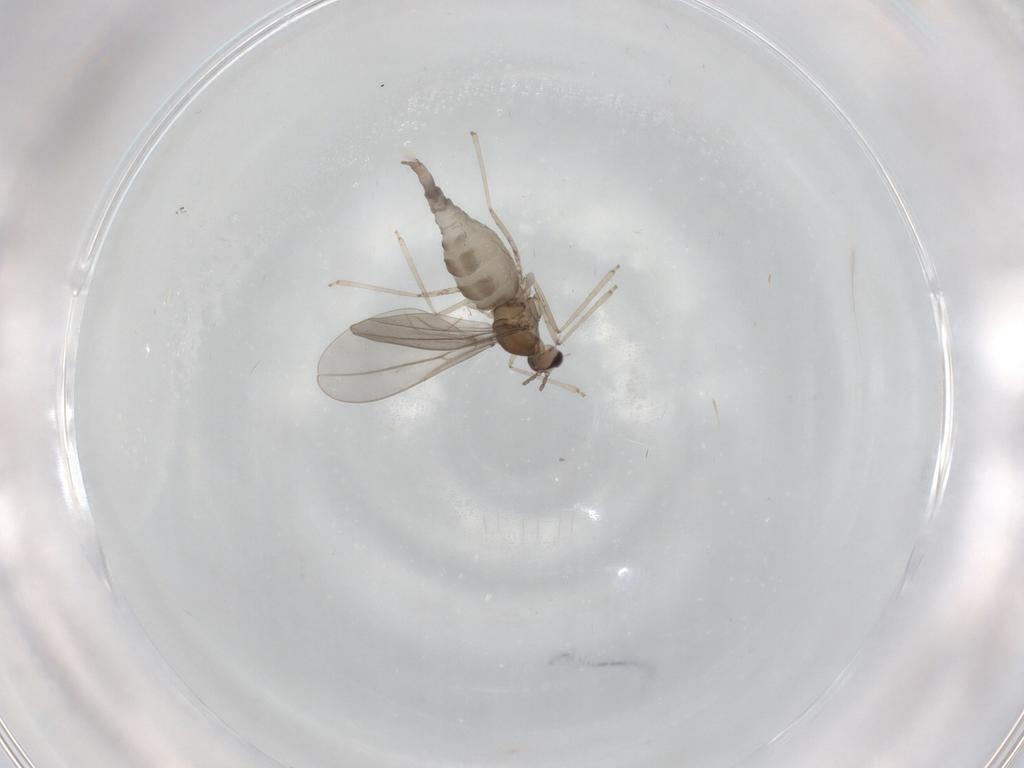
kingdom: Animalia
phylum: Arthropoda
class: Insecta
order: Diptera
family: Cecidomyiidae
